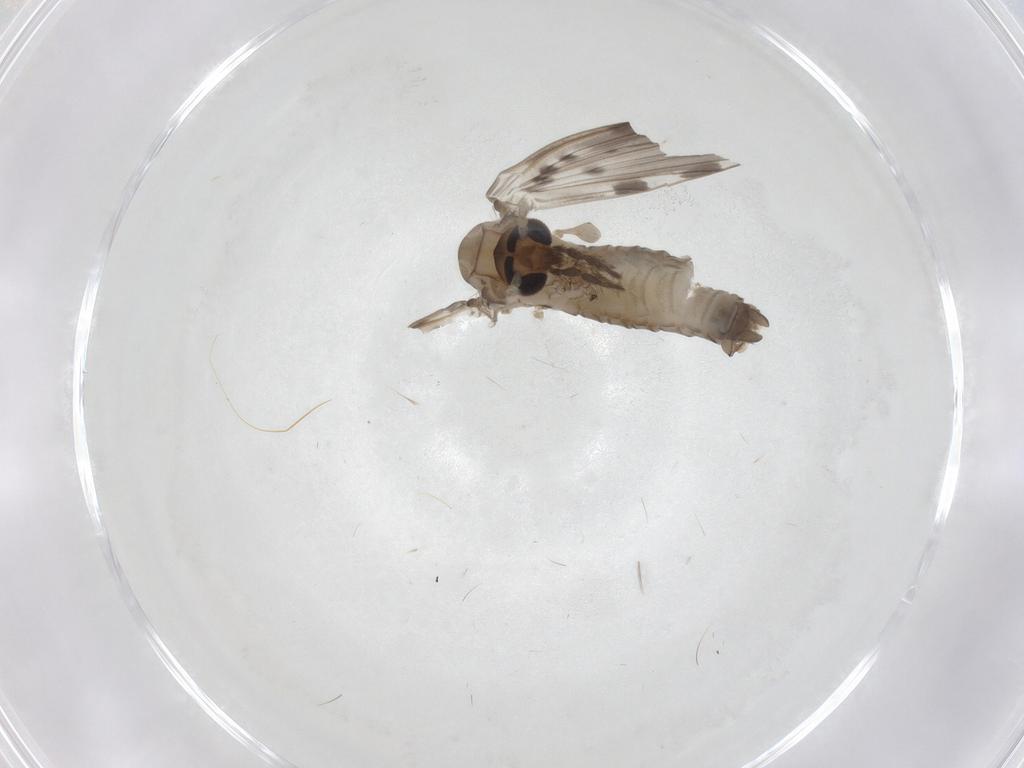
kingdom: Animalia
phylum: Arthropoda
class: Insecta
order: Diptera
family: Psychodidae
